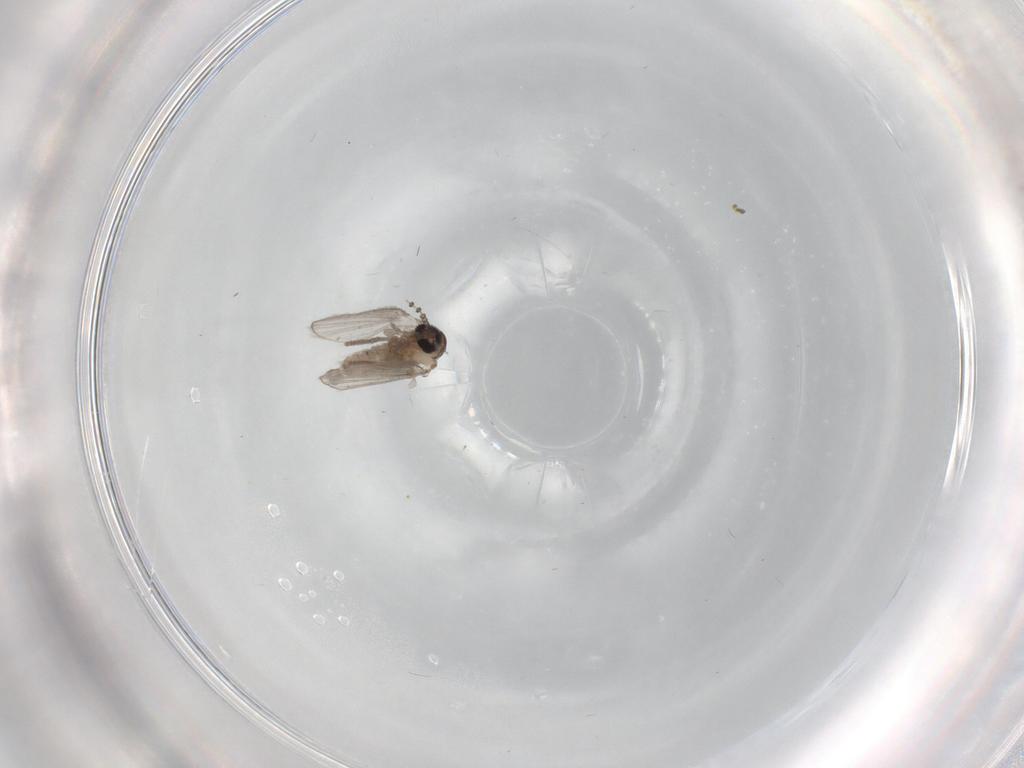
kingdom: Animalia
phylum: Arthropoda
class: Insecta
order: Diptera
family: Psychodidae
